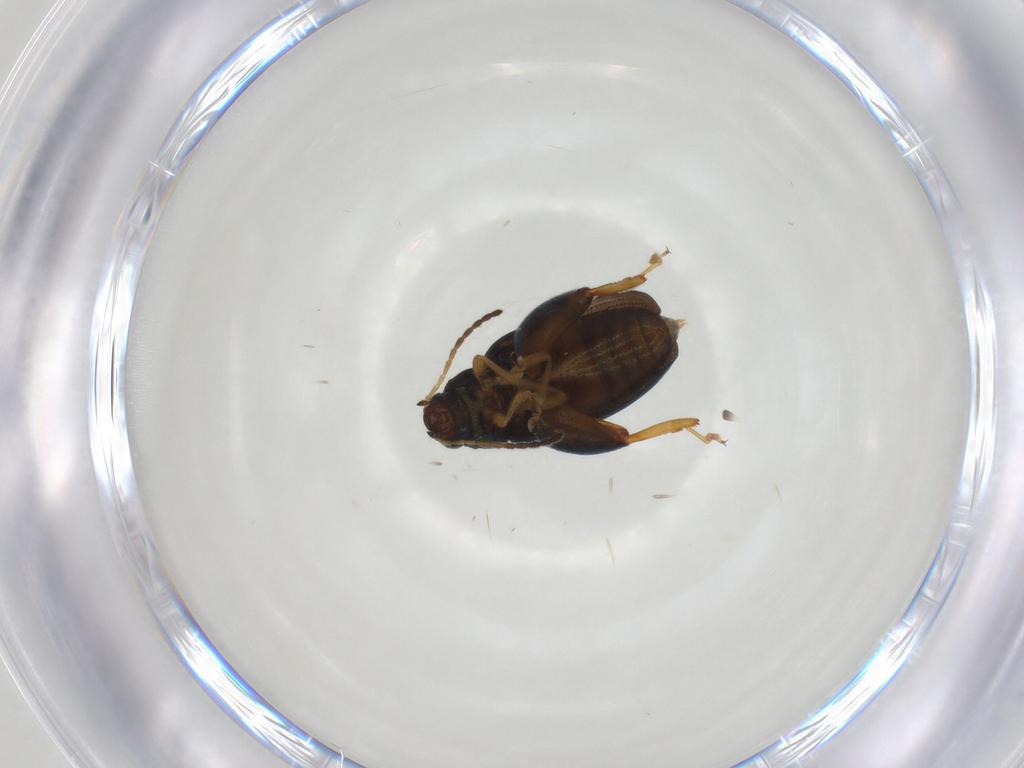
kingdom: Animalia
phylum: Arthropoda
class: Insecta
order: Coleoptera
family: Chrysomelidae
